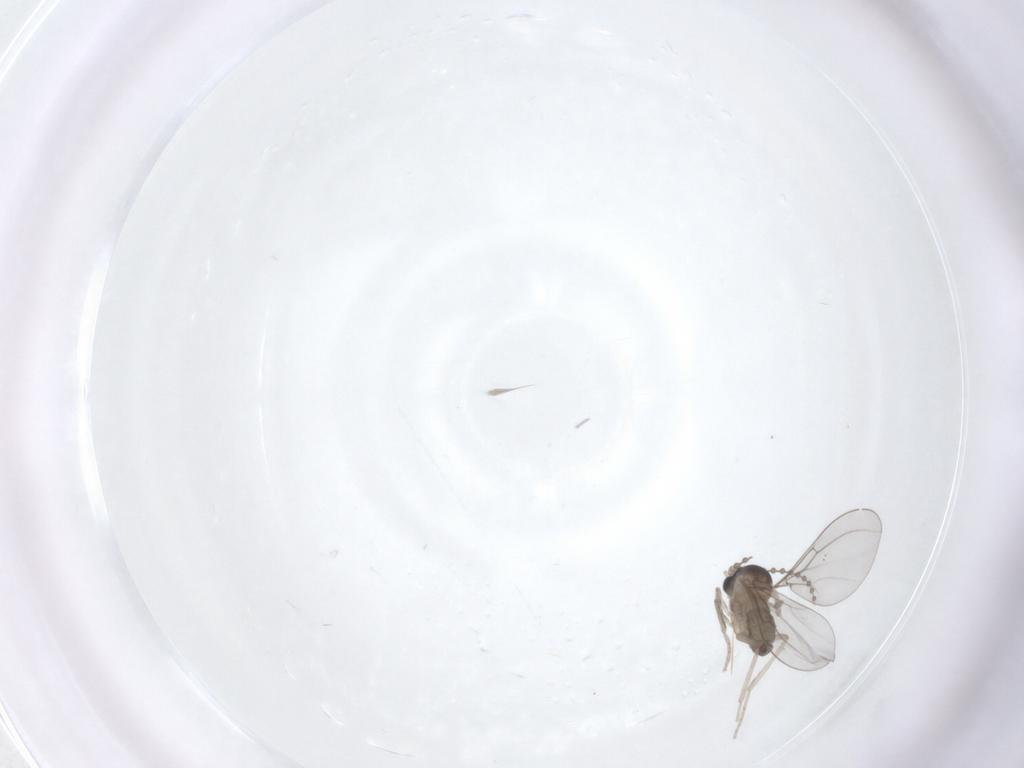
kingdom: Animalia
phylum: Arthropoda
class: Insecta
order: Diptera
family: Cecidomyiidae
